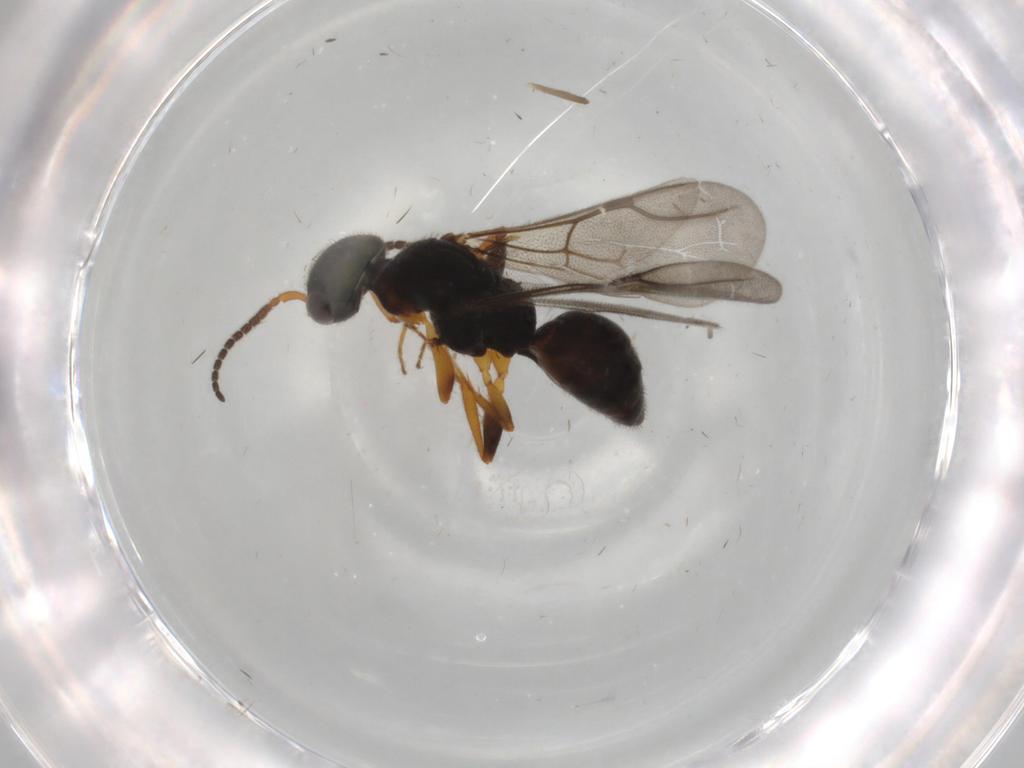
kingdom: Animalia
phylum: Arthropoda
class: Insecta
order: Hymenoptera
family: Bethylidae
